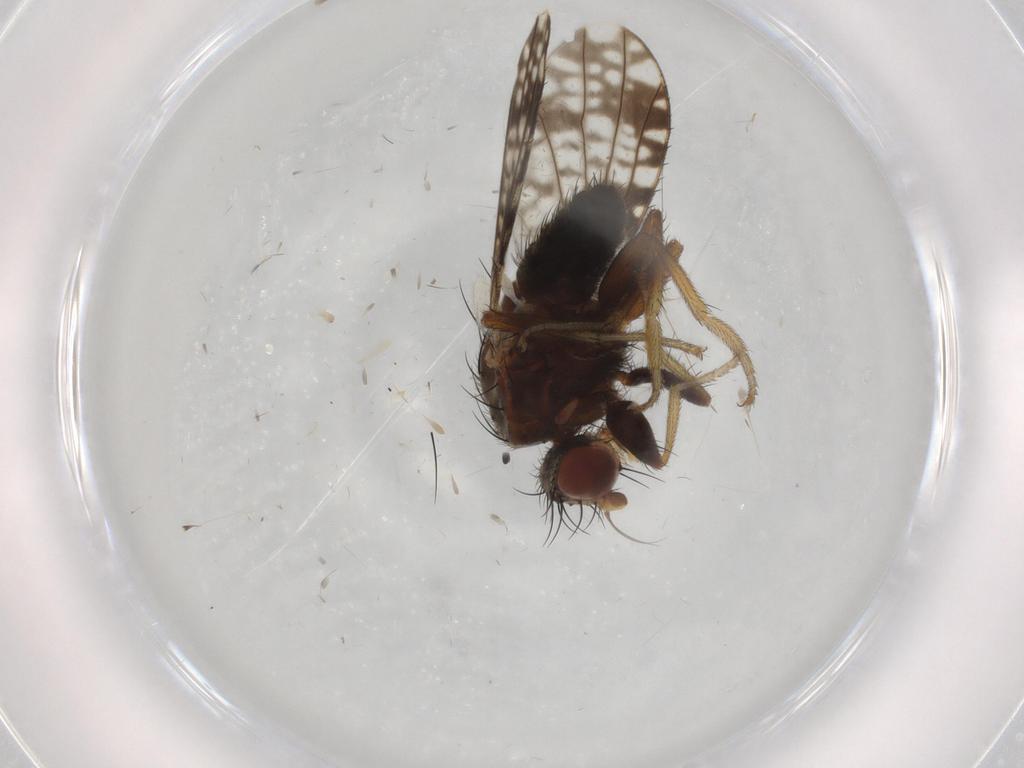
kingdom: Animalia
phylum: Arthropoda
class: Insecta
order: Diptera
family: Tephritidae
